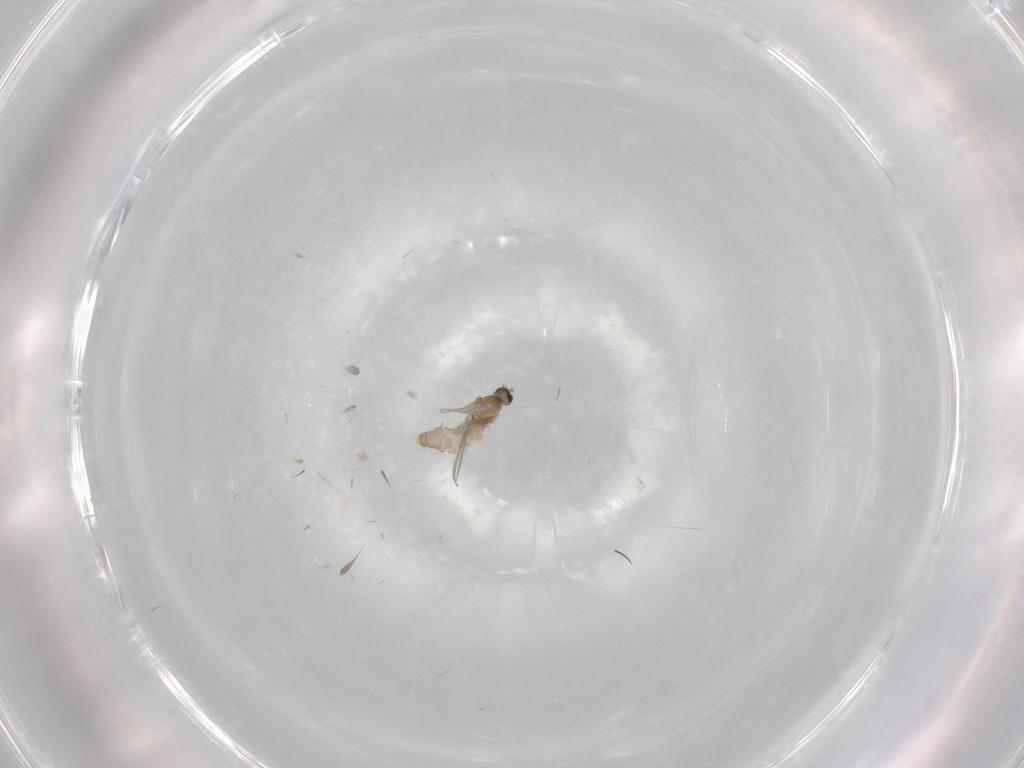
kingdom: Animalia
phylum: Arthropoda
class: Insecta
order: Diptera
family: Cecidomyiidae
